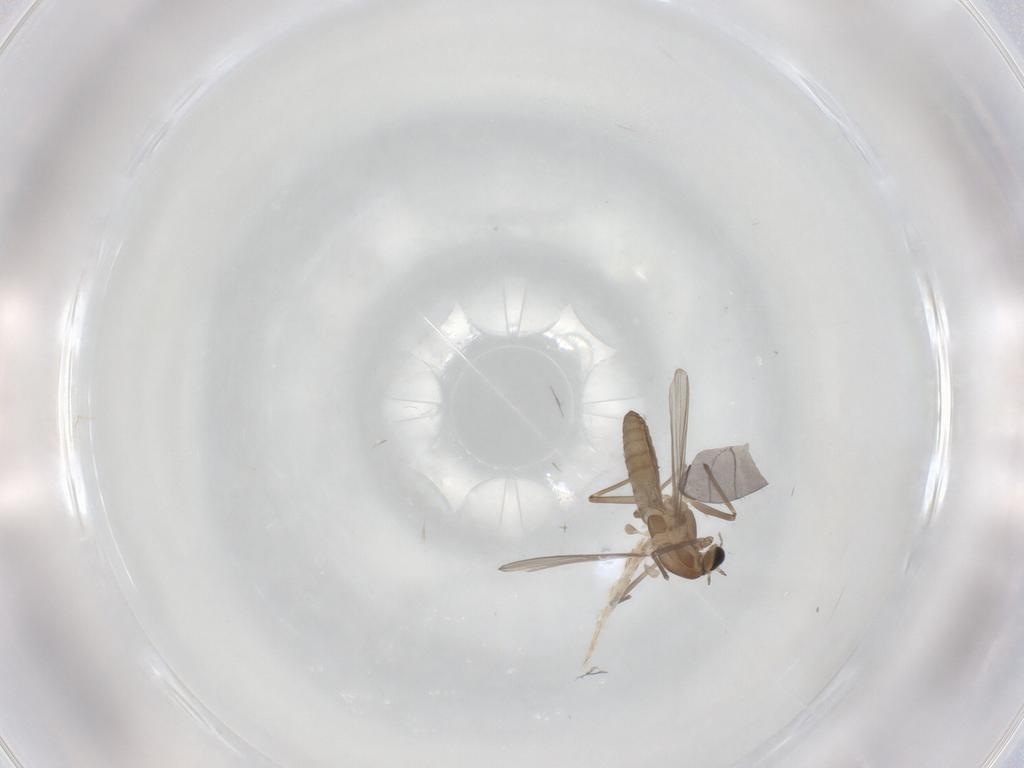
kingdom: Animalia
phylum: Arthropoda
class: Insecta
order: Diptera
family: Chironomidae
